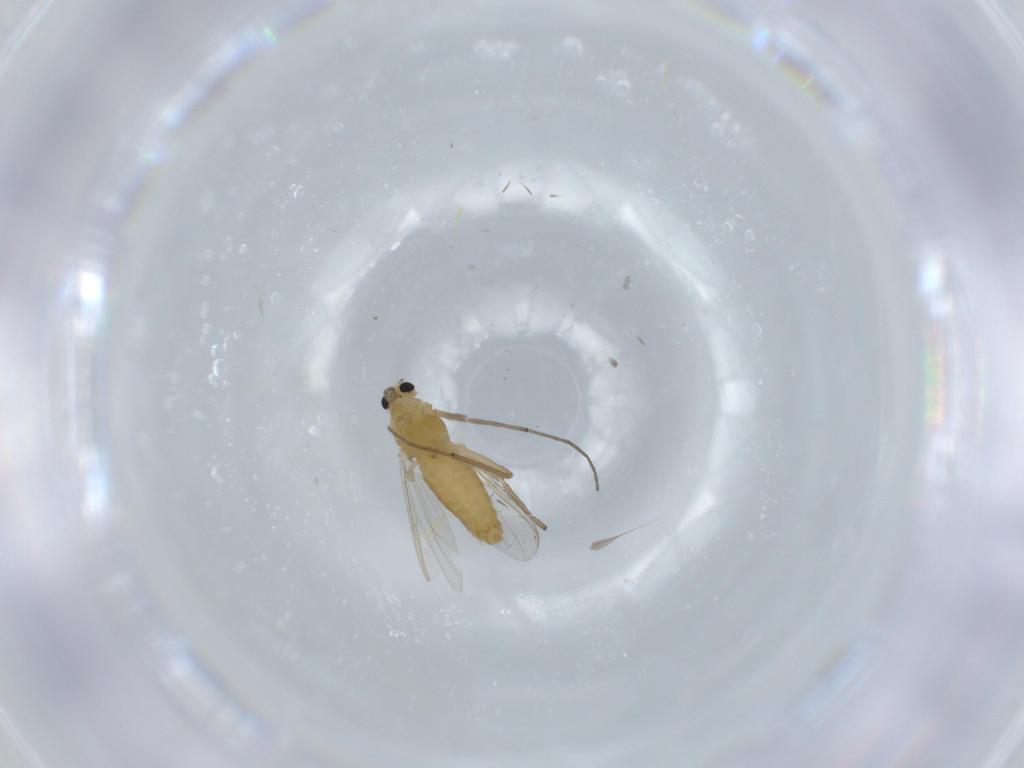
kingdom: Animalia
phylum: Arthropoda
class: Insecta
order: Diptera
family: Chironomidae
